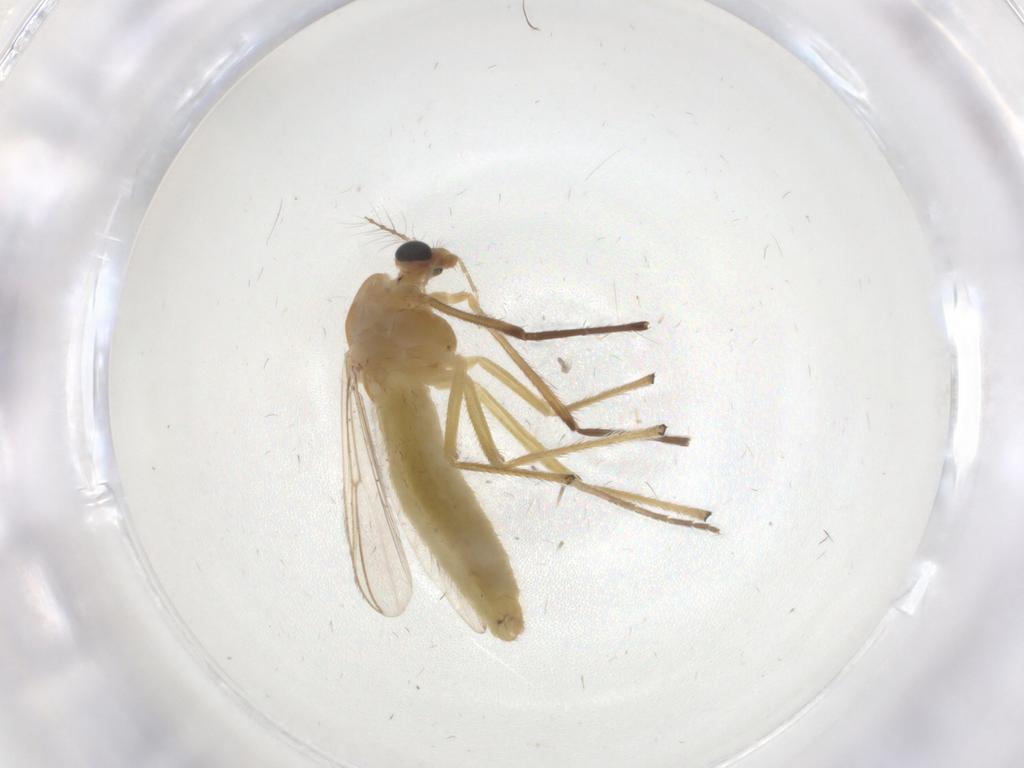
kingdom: Animalia
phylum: Arthropoda
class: Insecta
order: Diptera
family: Chironomidae
